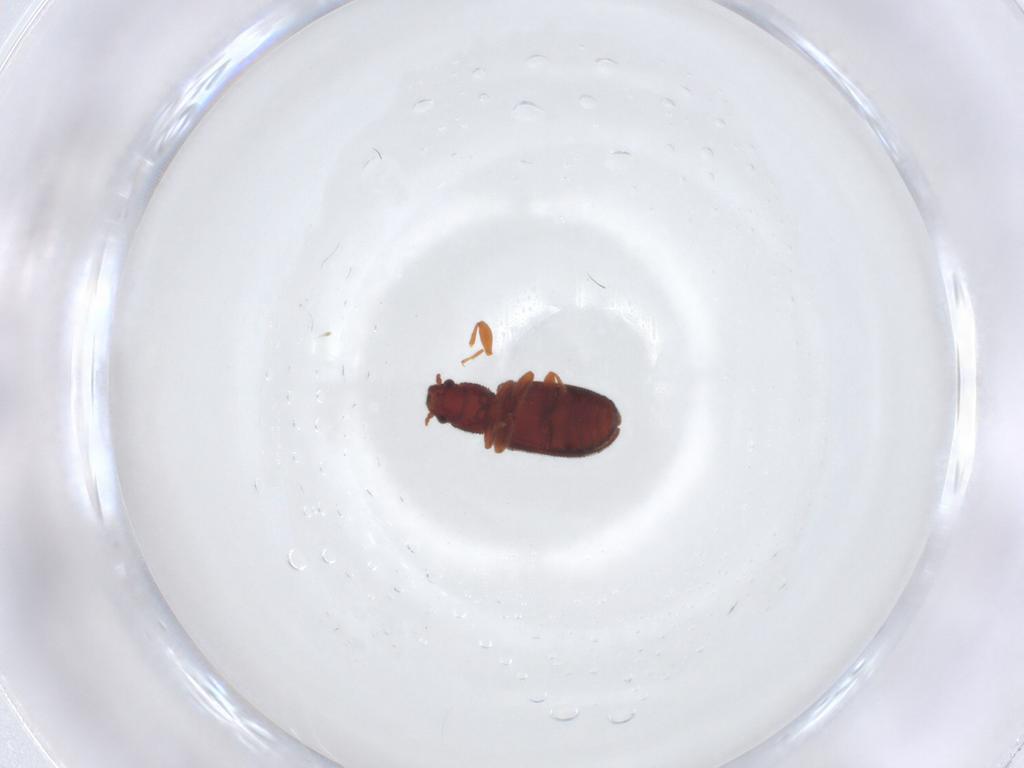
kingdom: Animalia
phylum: Arthropoda
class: Insecta
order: Coleoptera
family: Mycetophagidae
